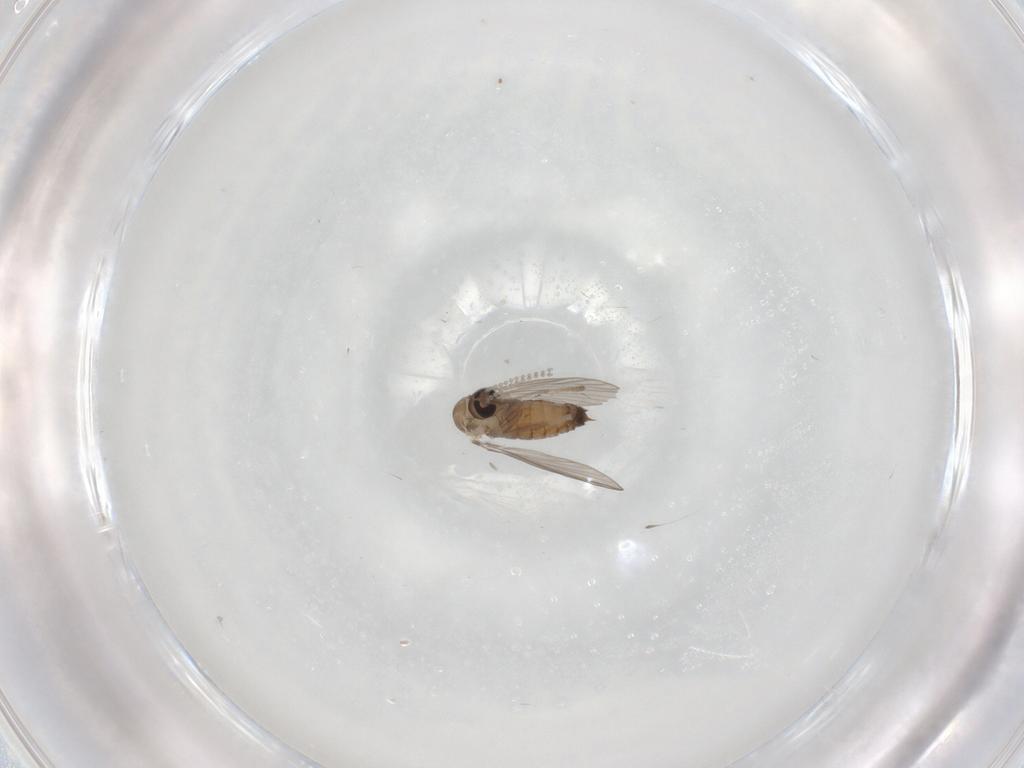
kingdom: Animalia
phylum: Arthropoda
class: Insecta
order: Diptera
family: Psychodidae
